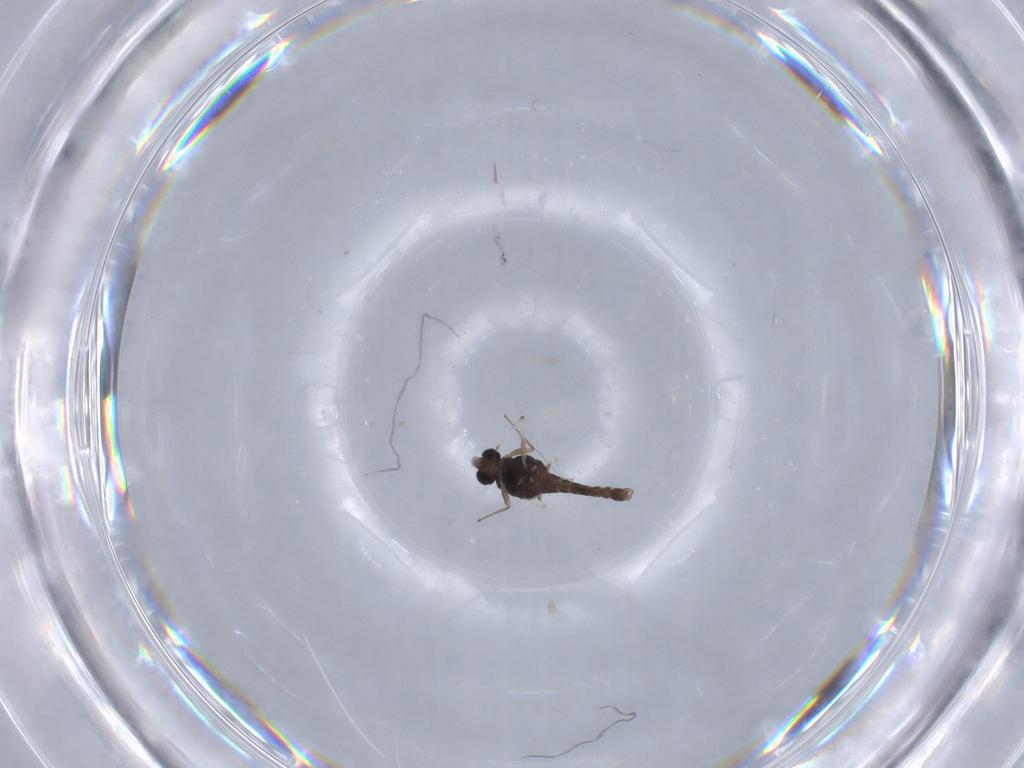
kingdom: Animalia
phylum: Arthropoda
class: Insecta
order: Diptera
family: Chironomidae
